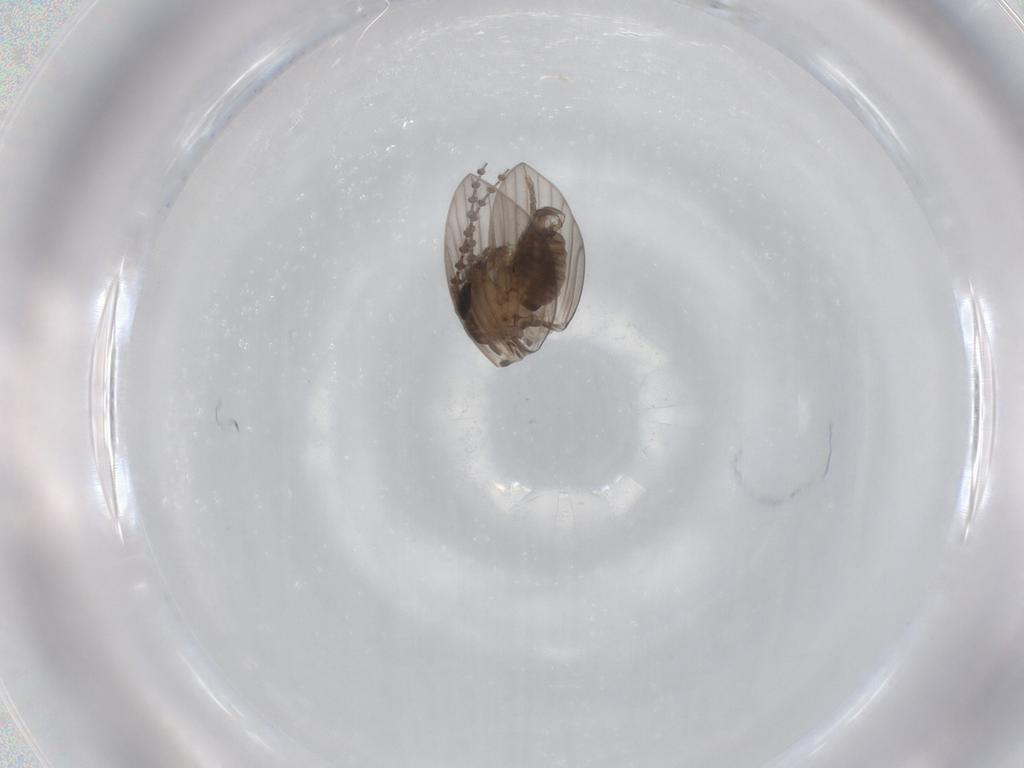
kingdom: Animalia
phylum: Arthropoda
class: Insecta
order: Diptera
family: Psychodidae
